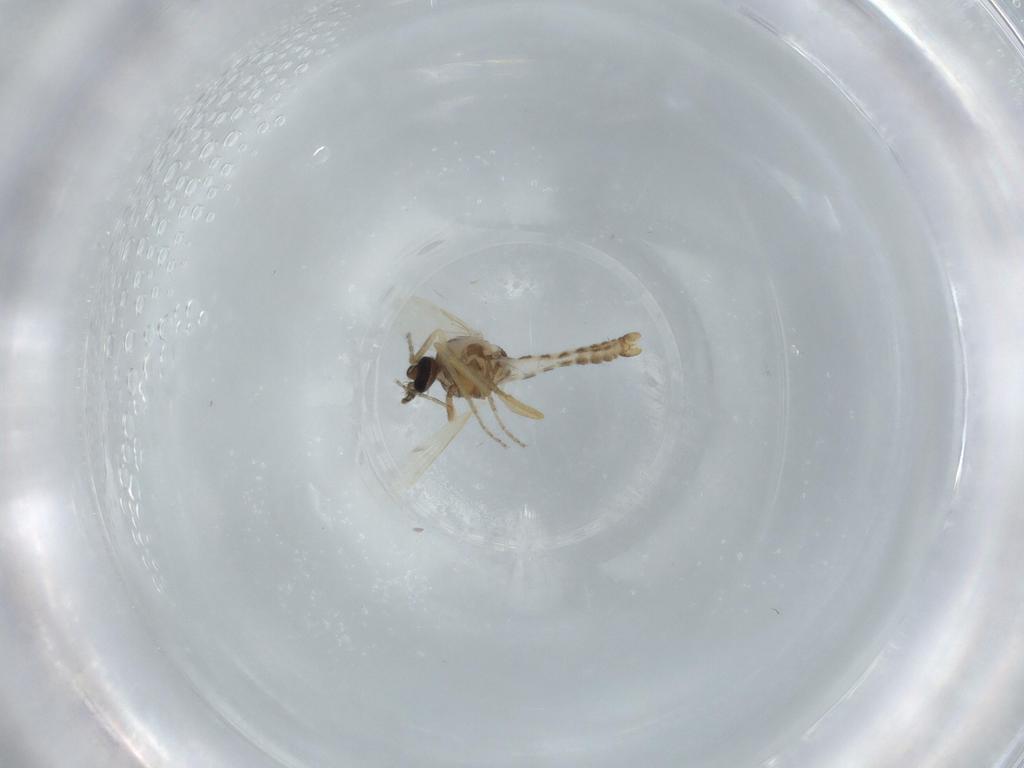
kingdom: Animalia
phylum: Arthropoda
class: Insecta
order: Diptera
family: Ceratopogonidae
